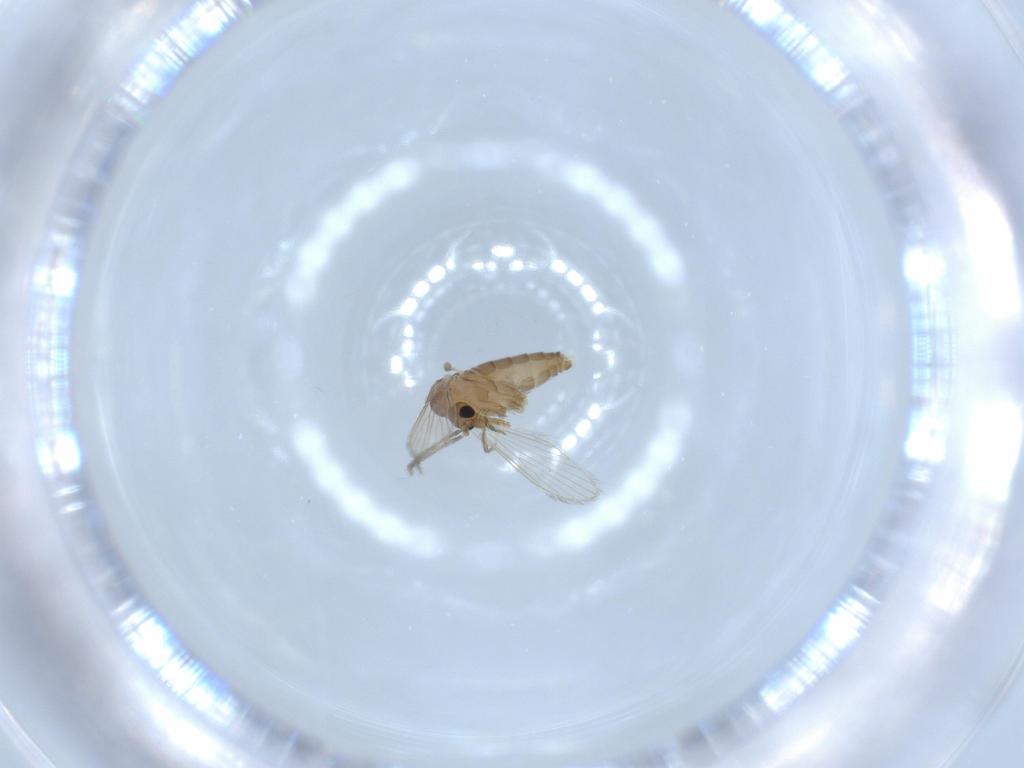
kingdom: Animalia
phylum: Arthropoda
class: Insecta
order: Diptera
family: Psychodidae
